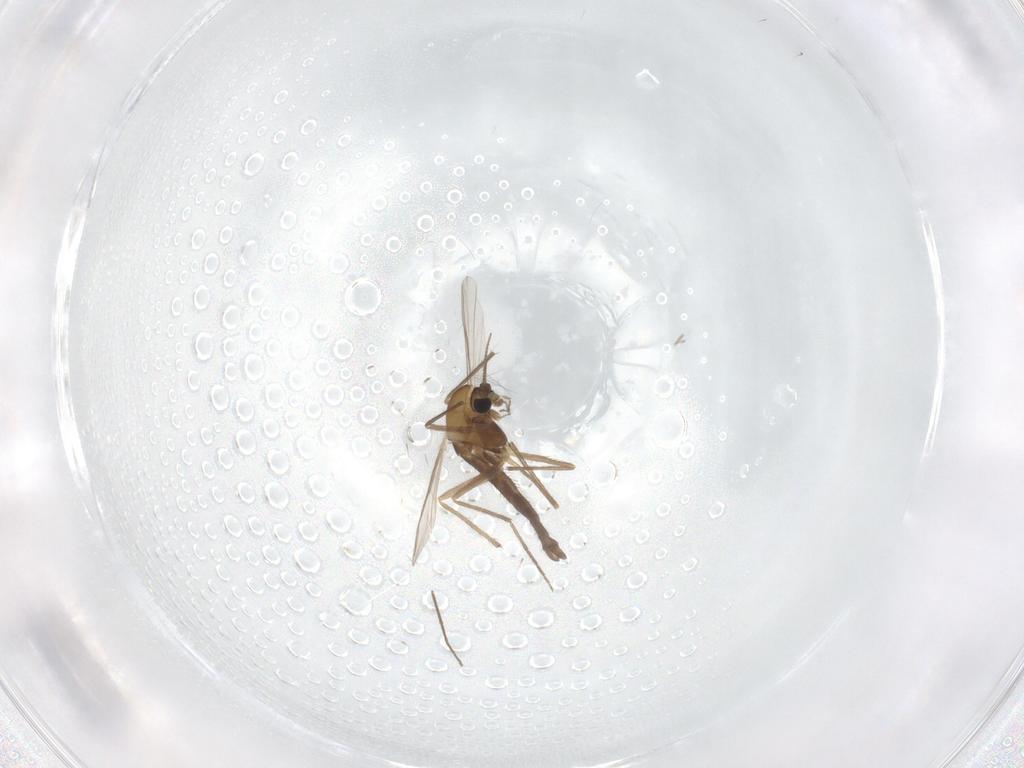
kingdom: Animalia
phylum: Arthropoda
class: Insecta
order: Diptera
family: Chironomidae
